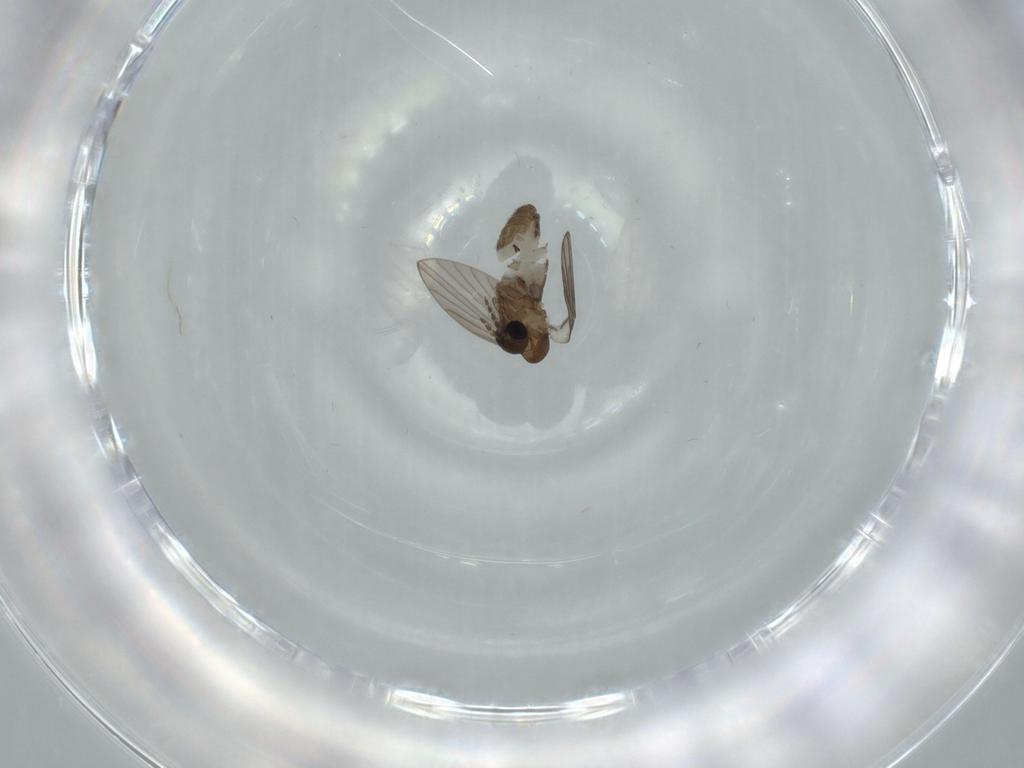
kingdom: Animalia
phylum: Arthropoda
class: Insecta
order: Diptera
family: Psychodidae
